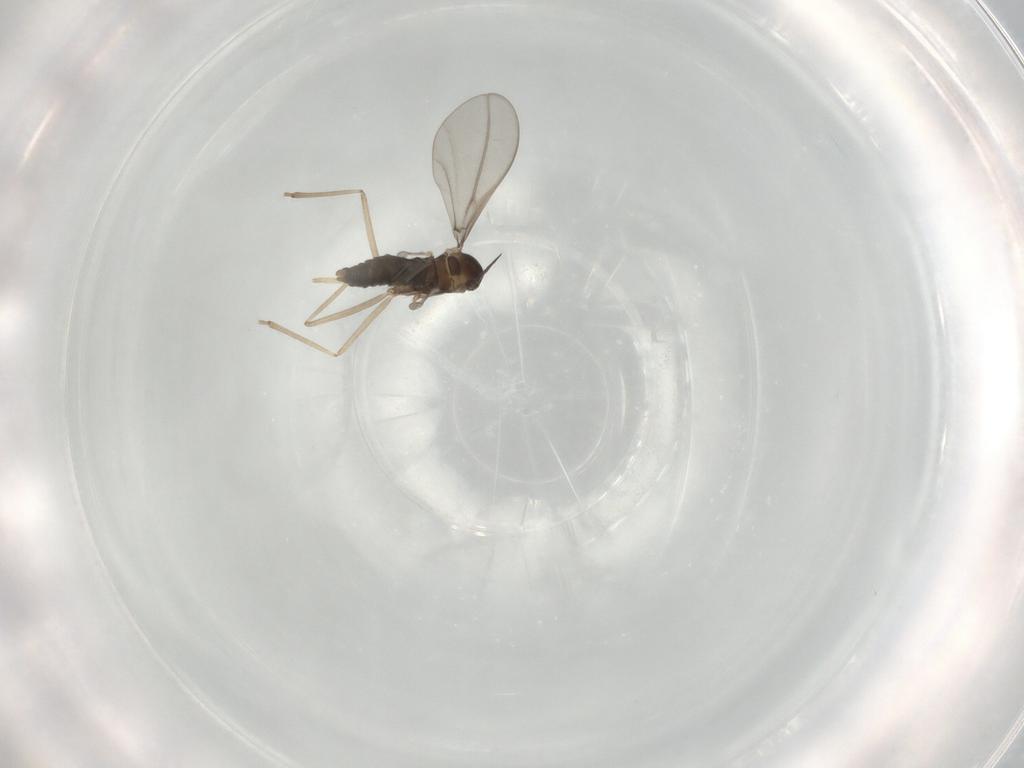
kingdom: Animalia
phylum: Arthropoda
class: Insecta
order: Diptera
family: Cecidomyiidae
